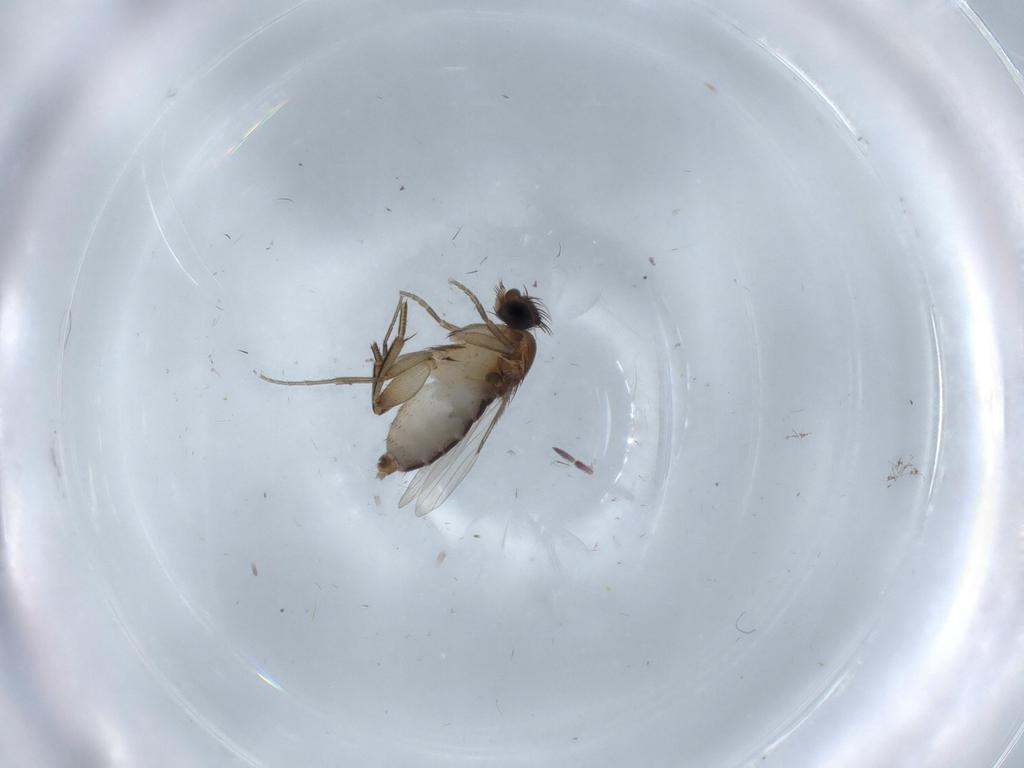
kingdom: Animalia
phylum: Arthropoda
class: Insecta
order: Diptera
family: Phoridae
